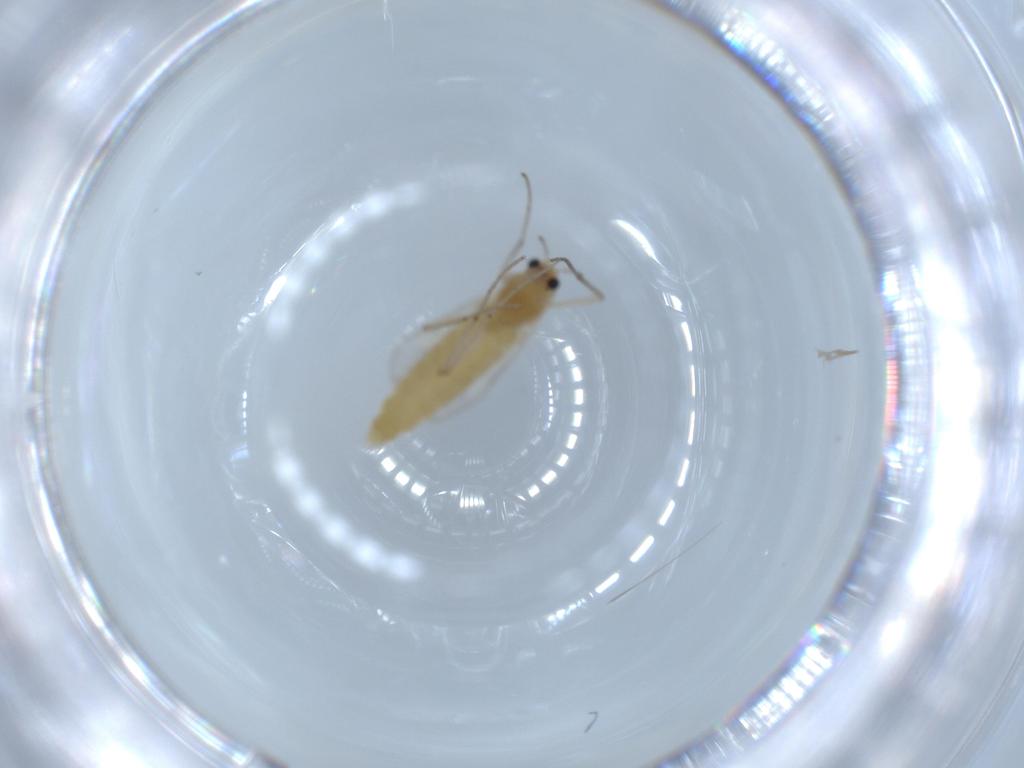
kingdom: Animalia
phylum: Arthropoda
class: Insecta
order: Diptera
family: Chironomidae
